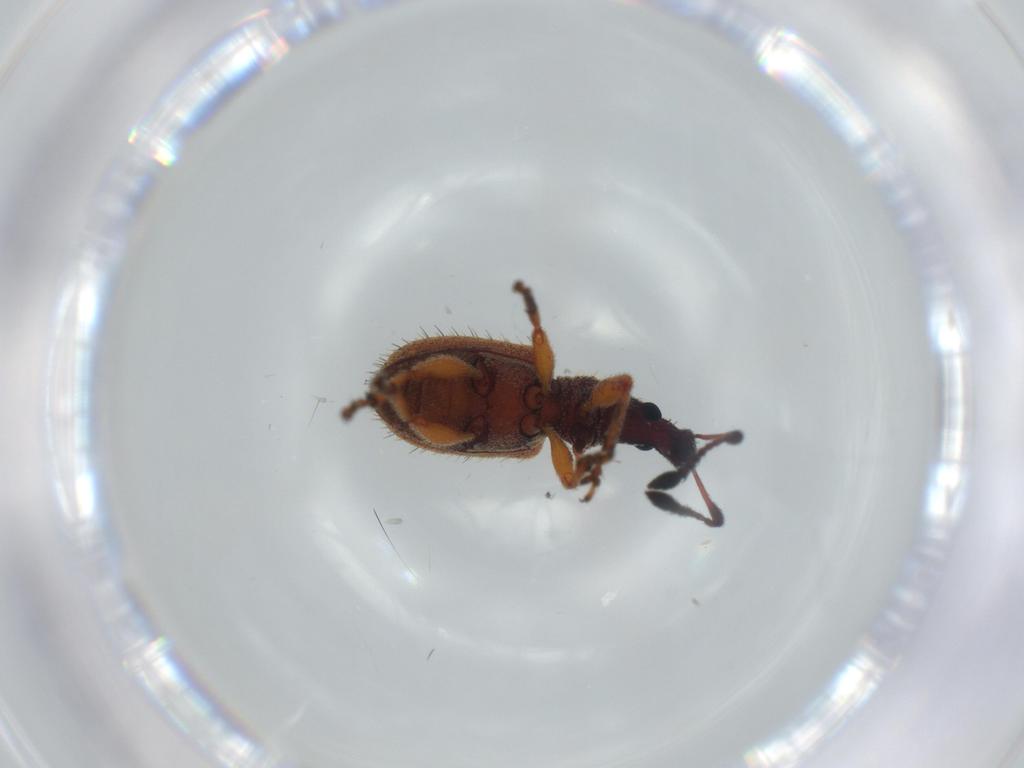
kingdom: Animalia
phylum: Arthropoda
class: Insecta
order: Coleoptera
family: Curculionidae
